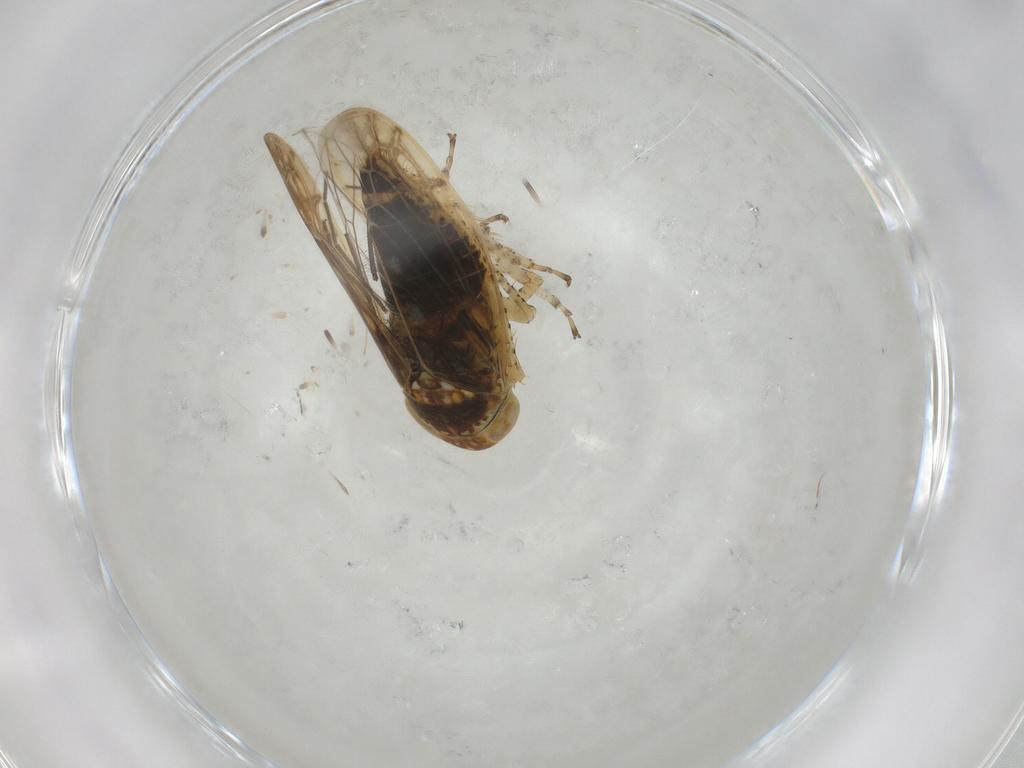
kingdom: Animalia
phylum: Arthropoda
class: Insecta
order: Hemiptera
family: Cicadellidae
